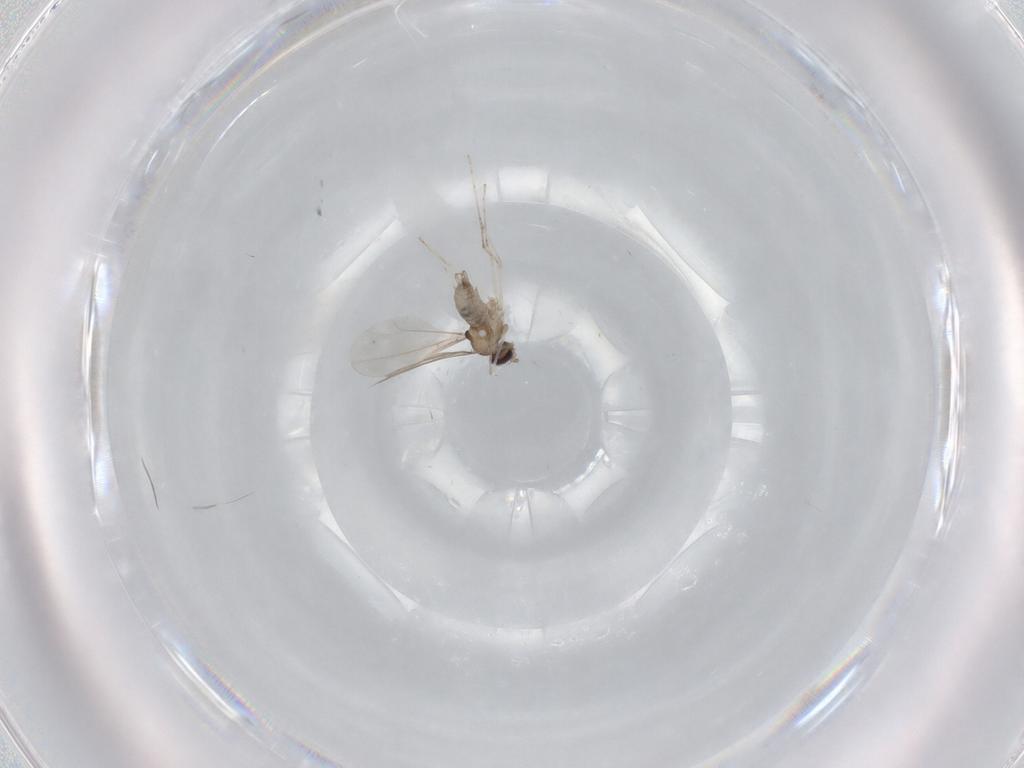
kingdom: Animalia
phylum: Arthropoda
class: Insecta
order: Diptera
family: Cecidomyiidae
